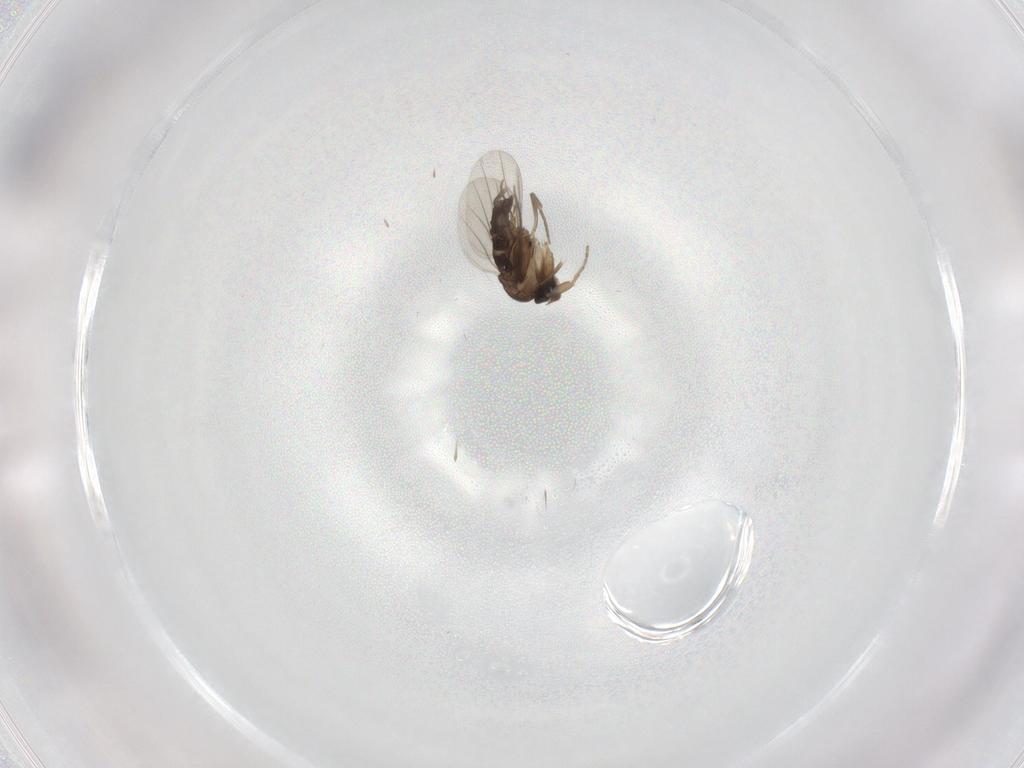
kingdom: Animalia
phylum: Arthropoda
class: Insecta
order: Diptera
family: Phoridae
